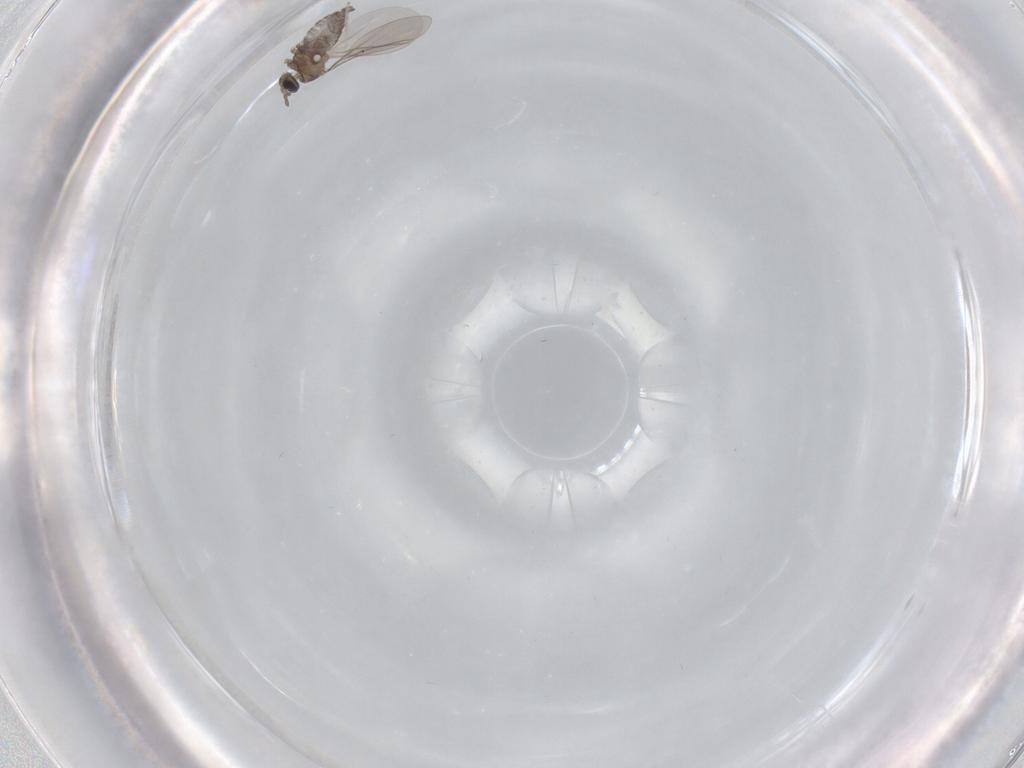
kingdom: Animalia
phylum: Arthropoda
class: Insecta
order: Diptera
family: Cecidomyiidae
